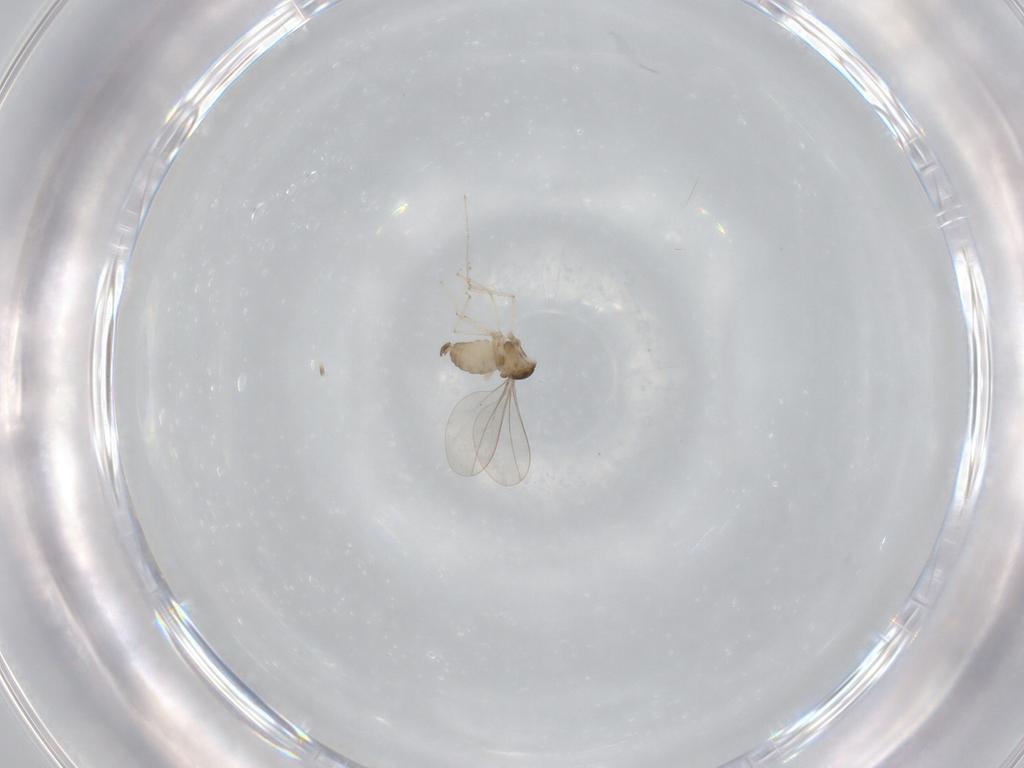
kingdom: Animalia
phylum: Arthropoda
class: Insecta
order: Diptera
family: Cecidomyiidae
